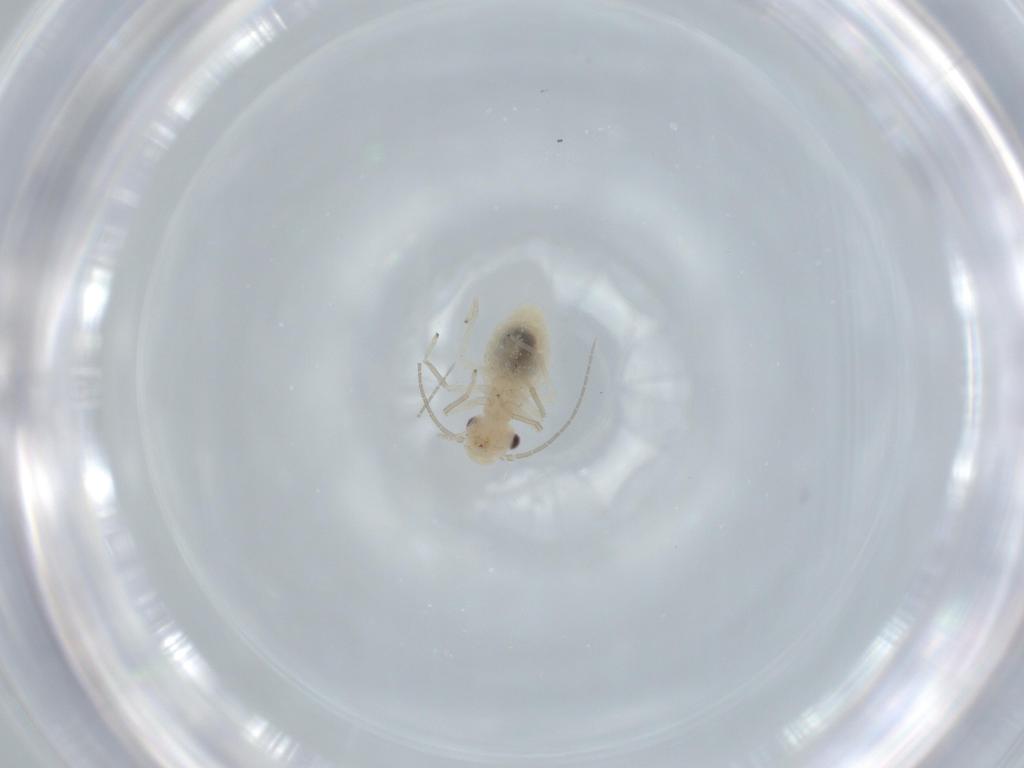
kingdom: Animalia
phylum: Arthropoda
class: Insecta
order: Psocodea
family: Caeciliusidae
